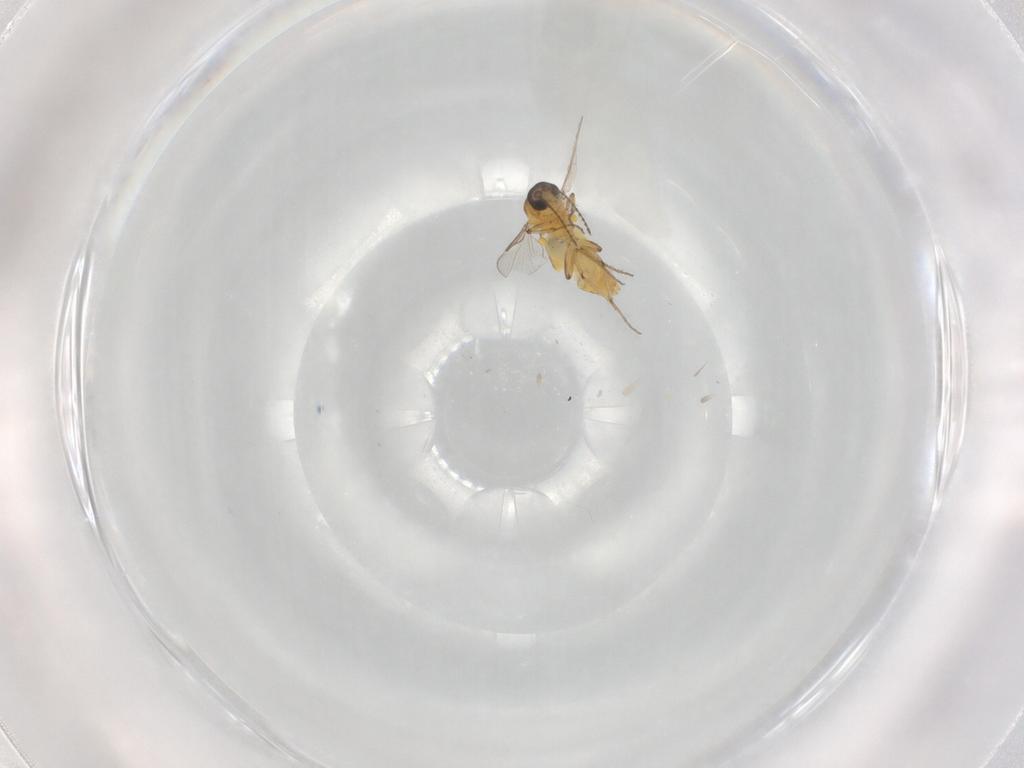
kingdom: Animalia
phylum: Arthropoda
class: Insecta
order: Diptera
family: Ceratopogonidae
